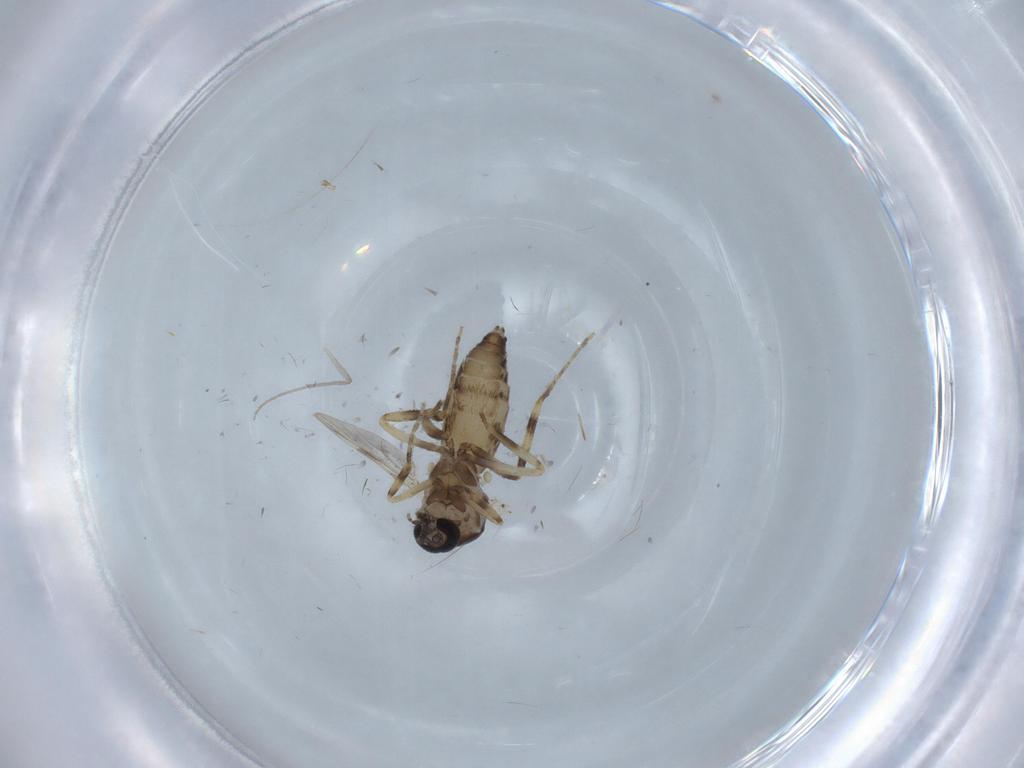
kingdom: Animalia
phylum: Arthropoda
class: Insecta
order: Diptera
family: Ceratopogonidae
